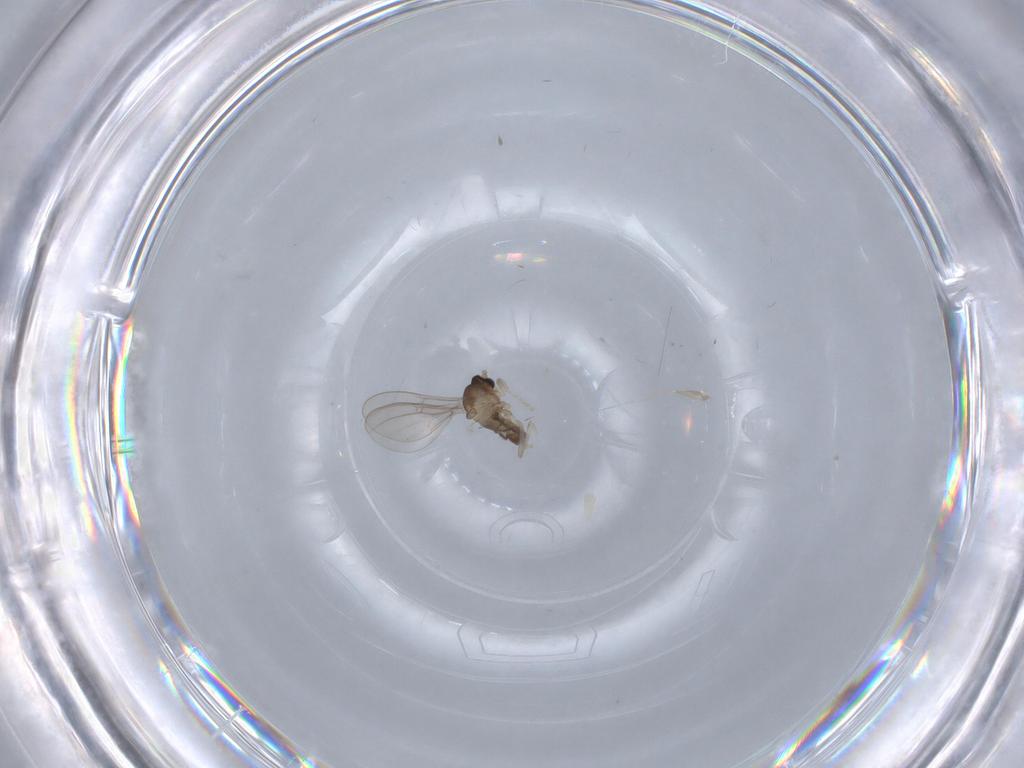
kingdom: Animalia
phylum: Arthropoda
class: Insecta
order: Diptera
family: Cecidomyiidae
